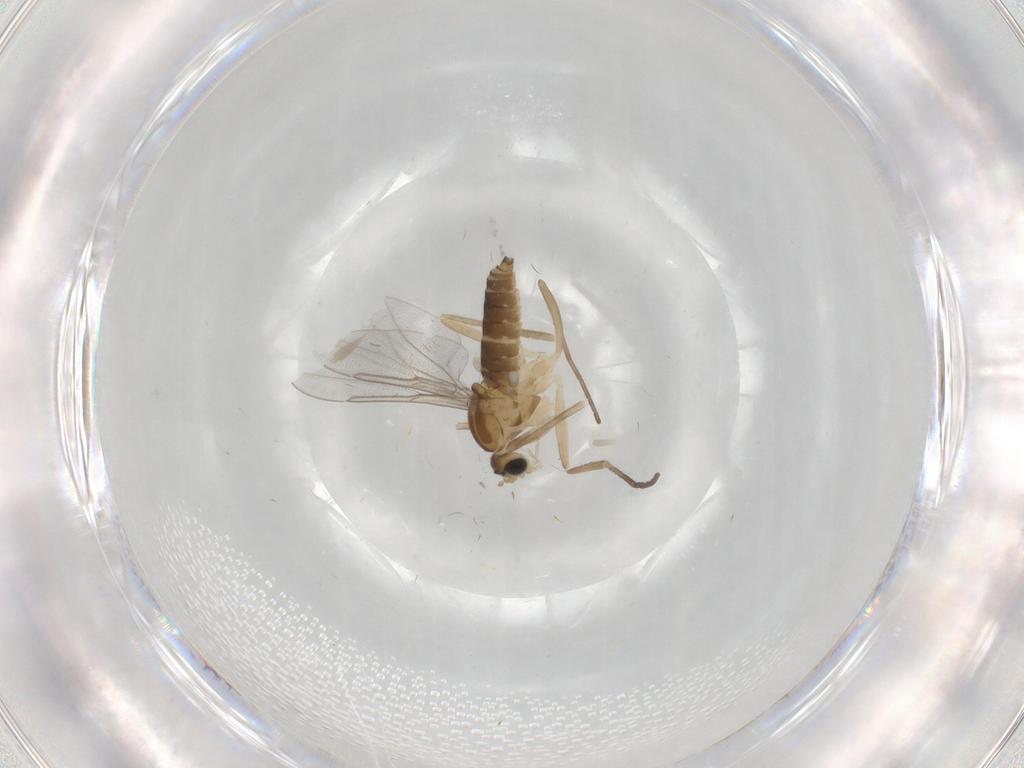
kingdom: Animalia
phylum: Arthropoda
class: Insecta
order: Diptera
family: Cecidomyiidae
